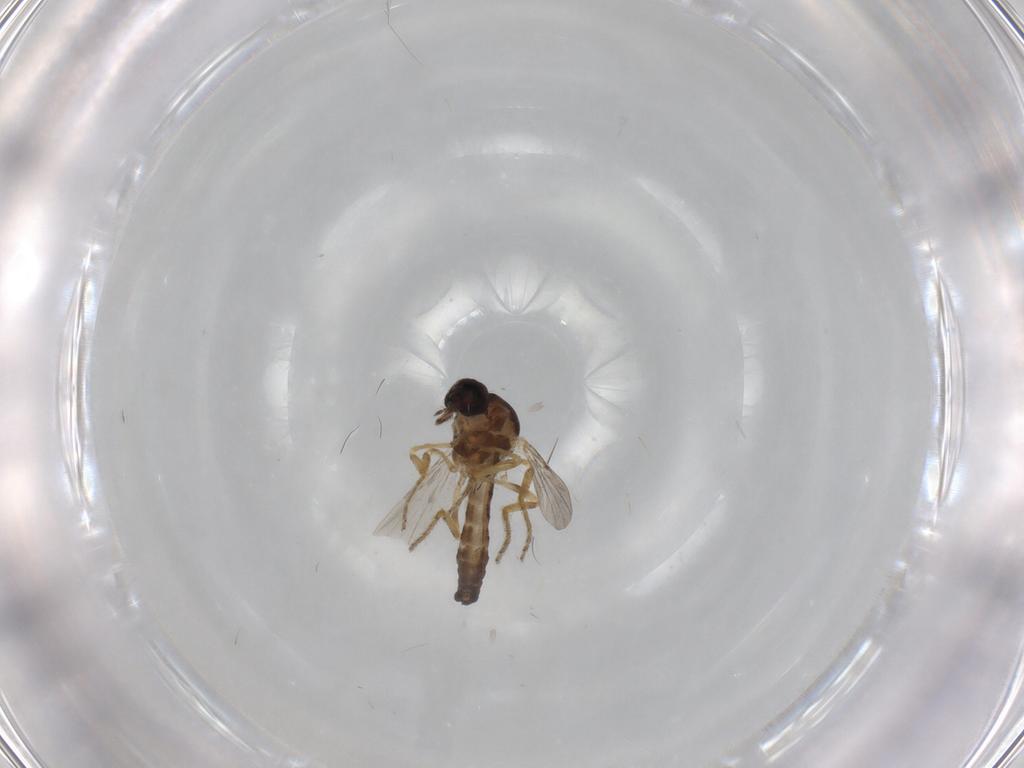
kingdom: Animalia
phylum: Arthropoda
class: Insecta
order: Diptera
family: Ceratopogonidae
